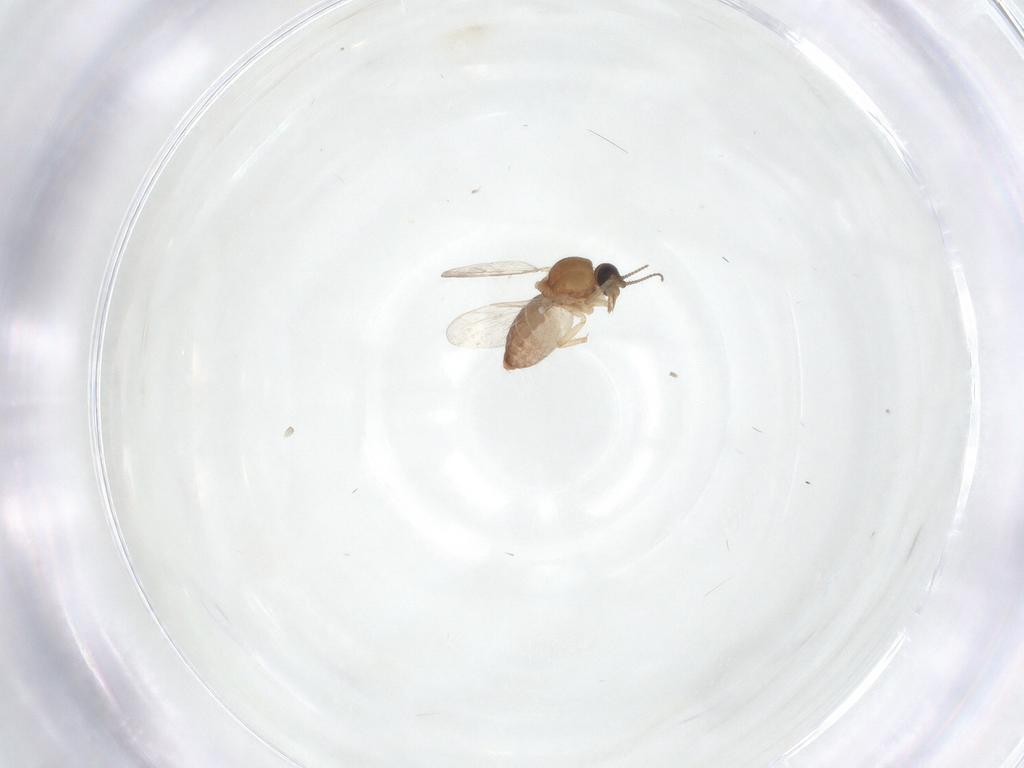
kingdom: Animalia
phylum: Arthropoda
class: Insecta
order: Diptera
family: Ceratopogonidae
